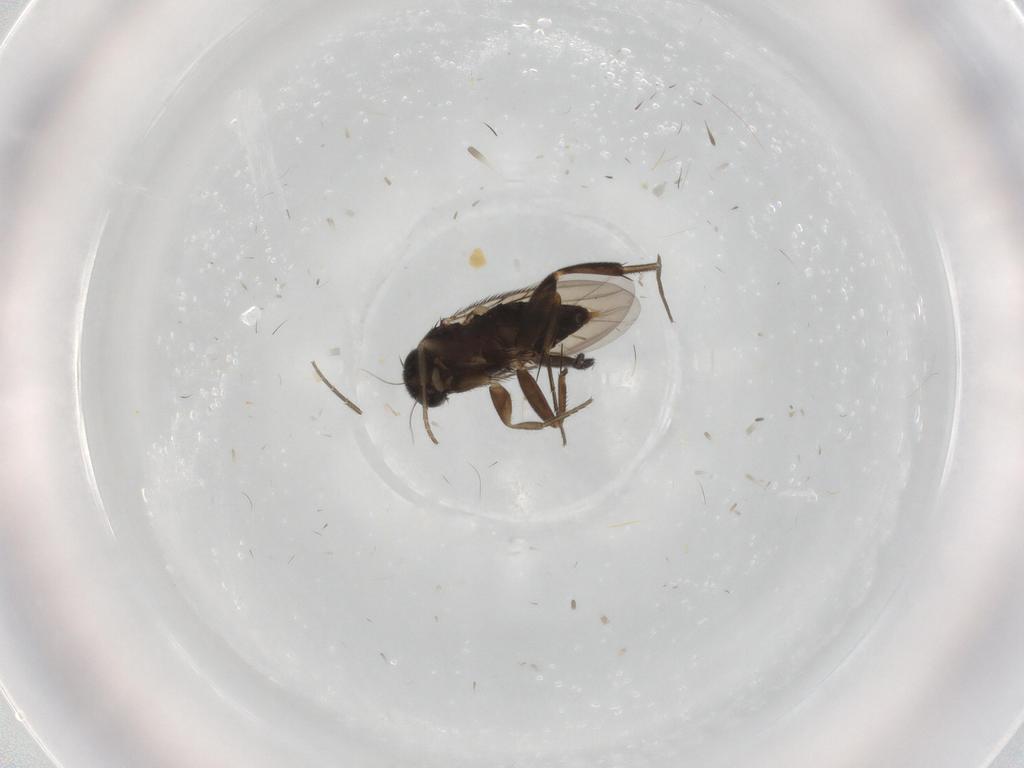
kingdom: Animalia
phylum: Arthropoda
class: Insecta
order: Diptera
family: Phoridae
